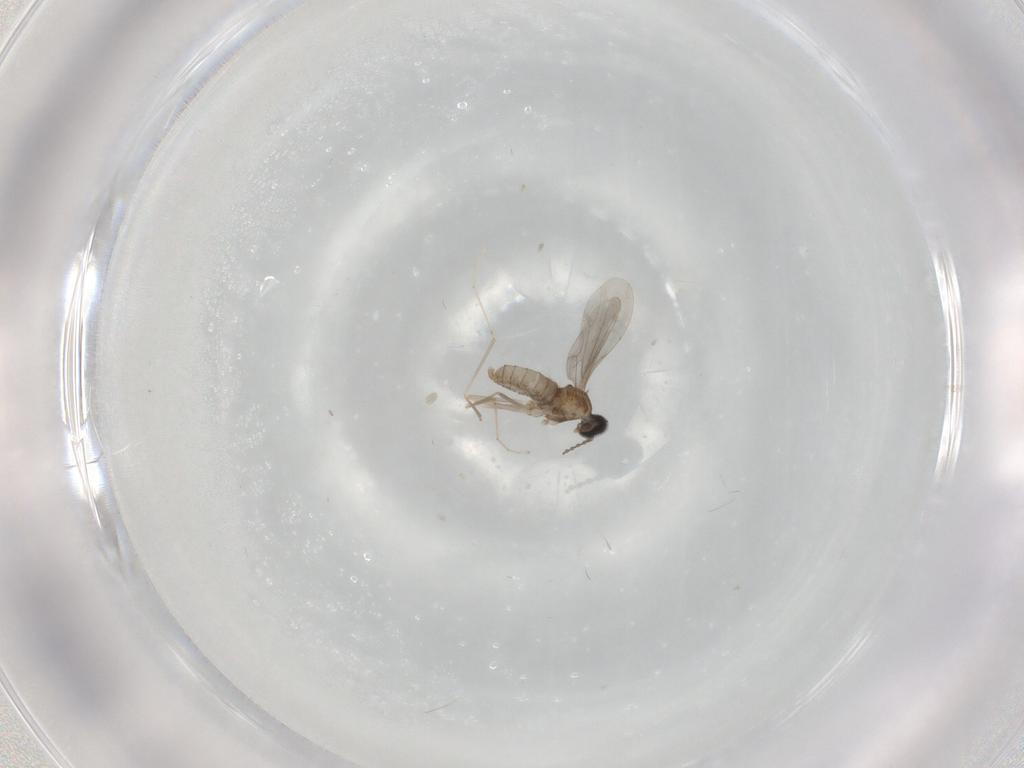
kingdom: Animalia
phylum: Arthropoda
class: Insecta
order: Diptera
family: Cecidomyiidae
